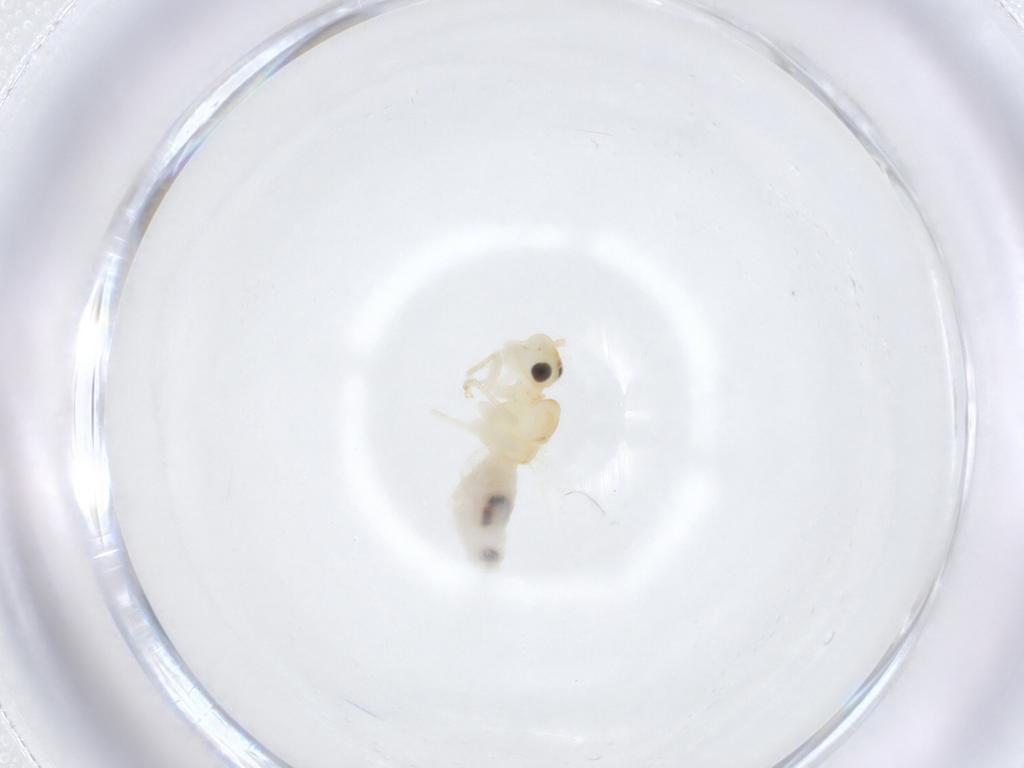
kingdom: Animalia
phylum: Arthropoda
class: Insecta
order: Psocodea
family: Caeciliusidae
